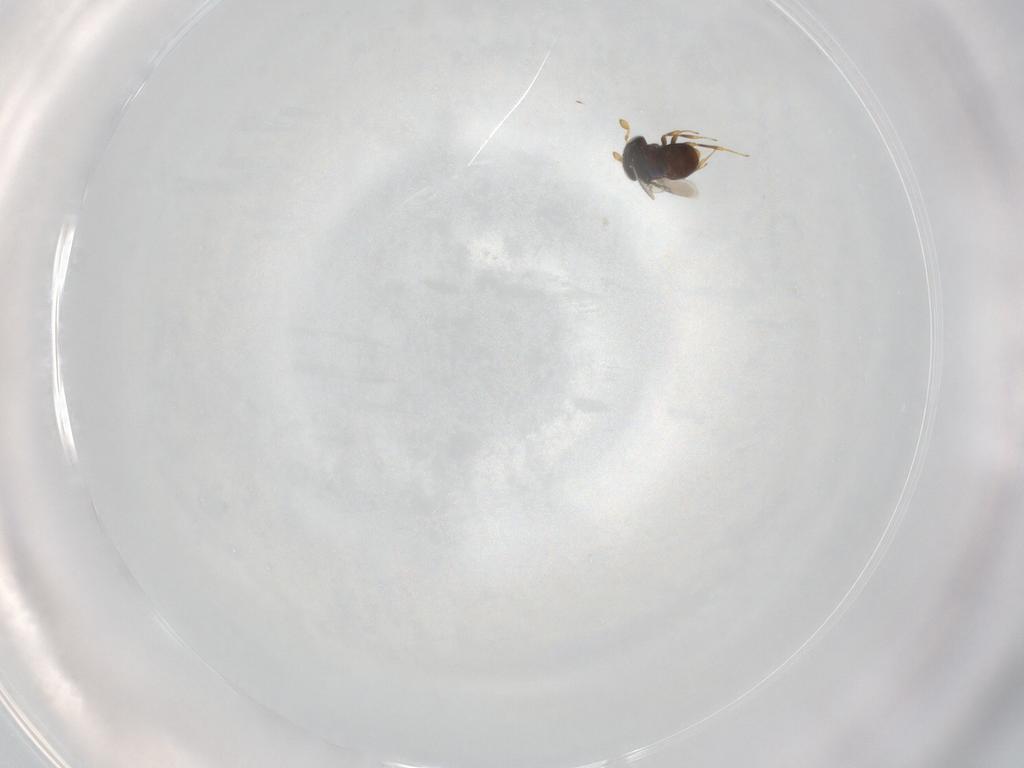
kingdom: Animalia
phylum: Arthropoda
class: Insecta
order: Hymenoptera
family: Scelionidae
